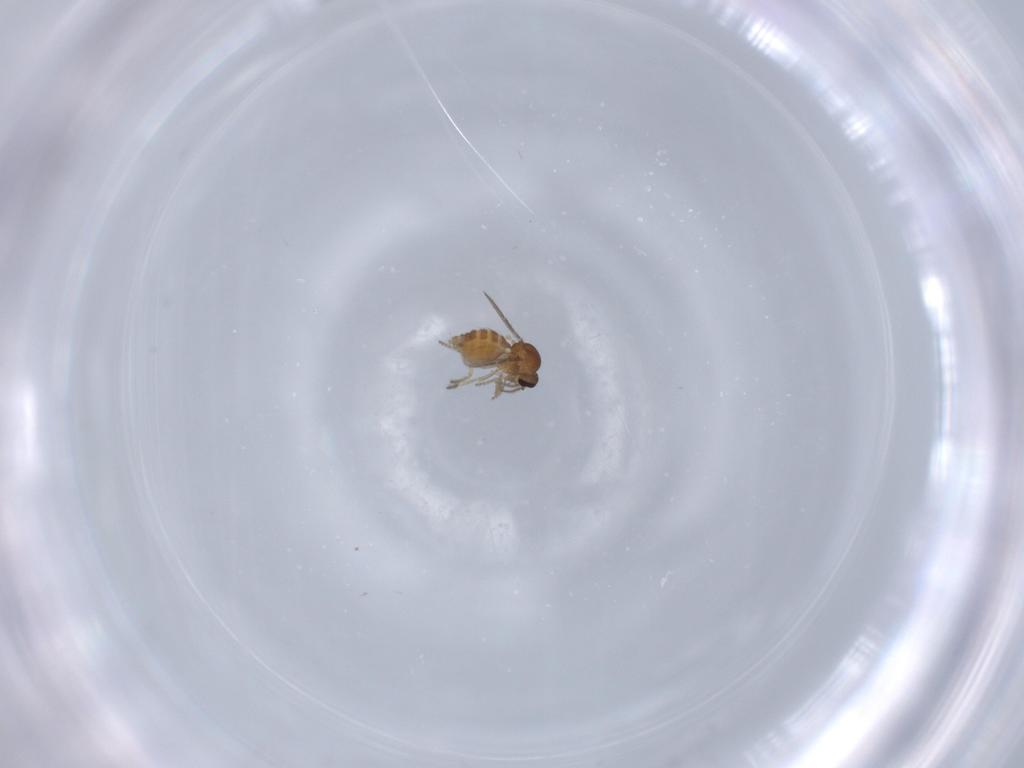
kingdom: Animalia
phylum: Arthropoda
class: Insecta
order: Diptera
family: Ceratopogonidae
